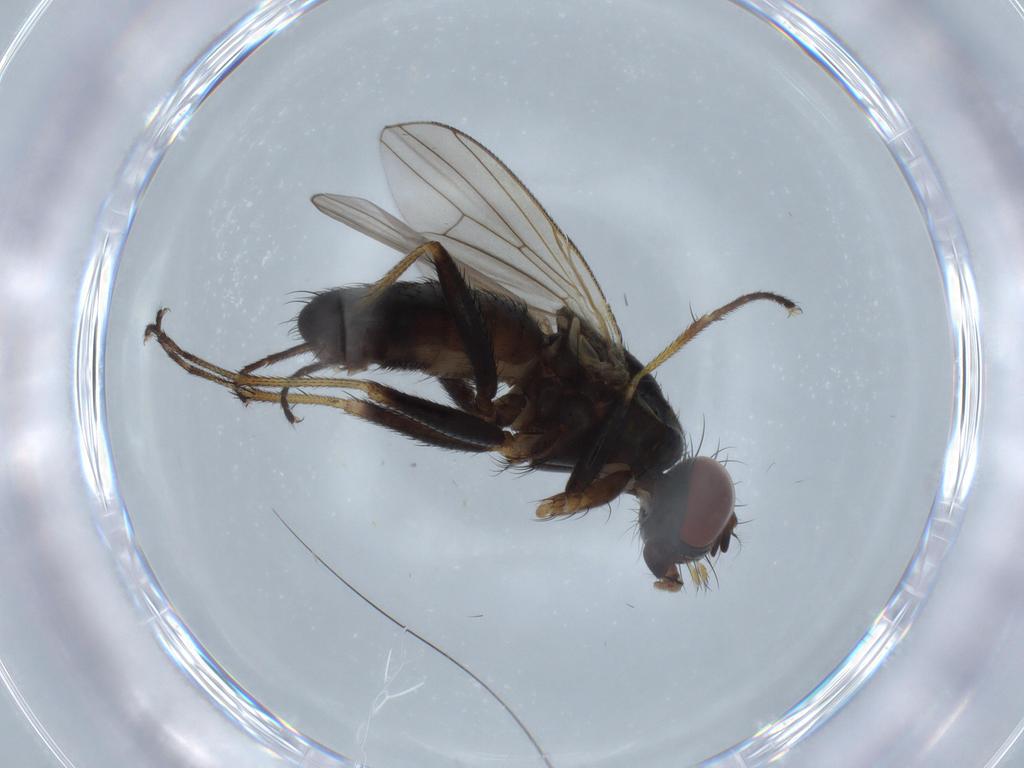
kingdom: Animalia
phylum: Arthropoda
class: Insecta
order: Diptera
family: Muscidae
